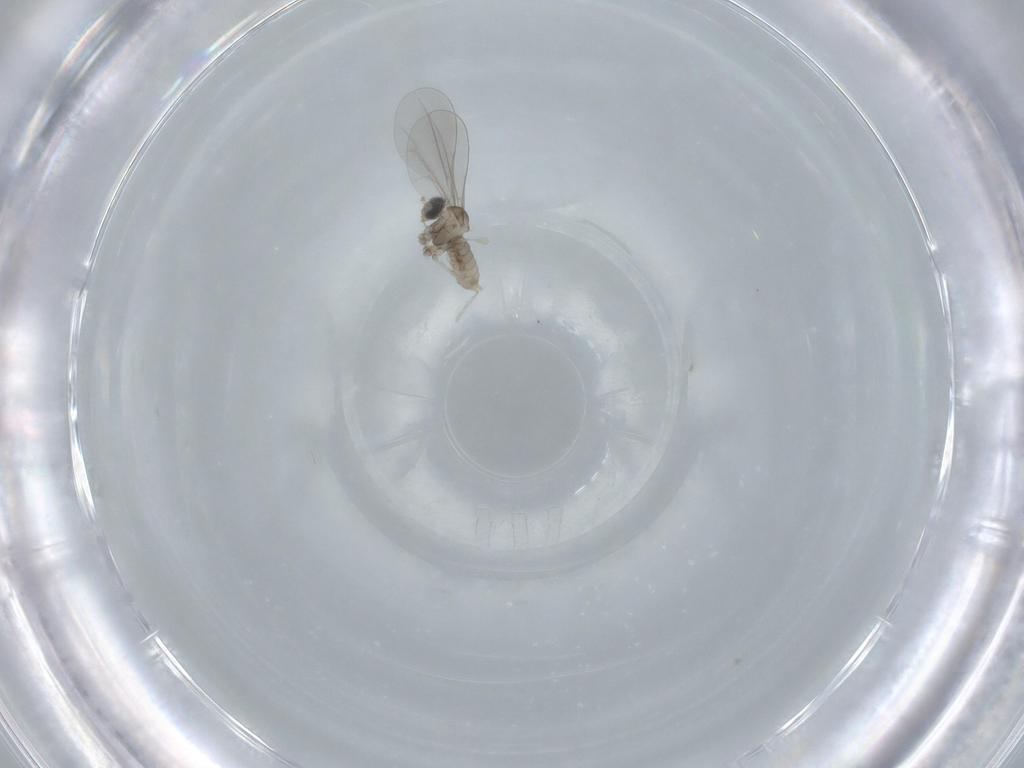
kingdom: Animalia
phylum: Arthropoda
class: Insecta
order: Diptera
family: Cecidomyiidae
